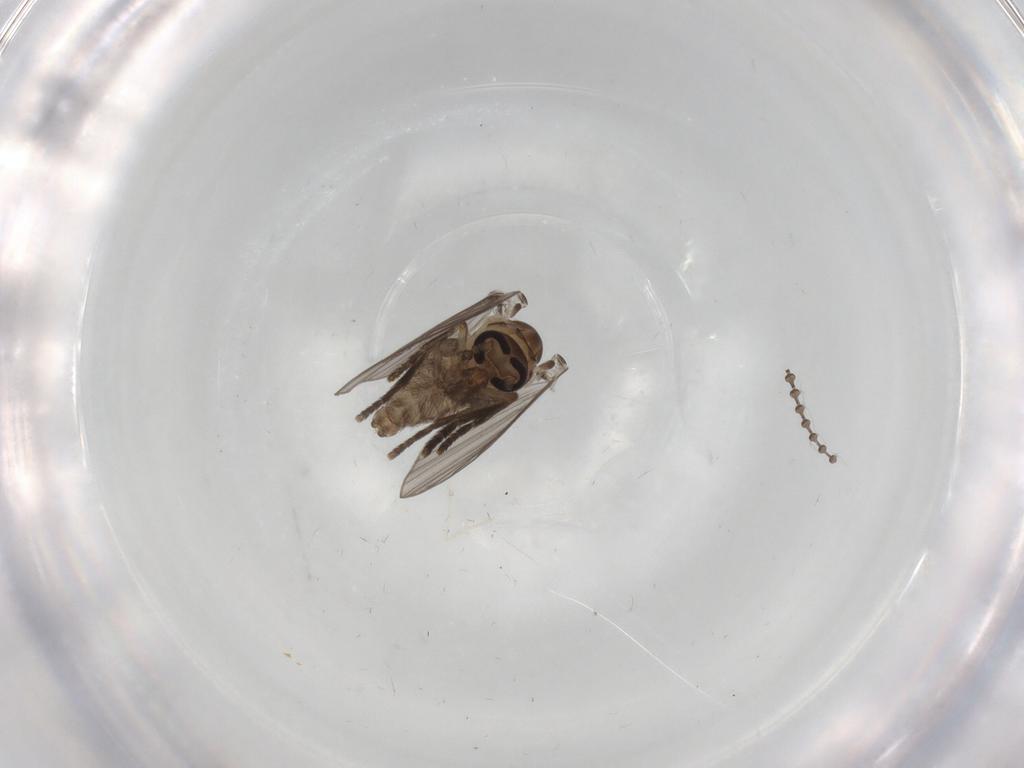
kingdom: Animalia
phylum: Arthropoda
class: Insecta
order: Diptera
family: Psychodidae
